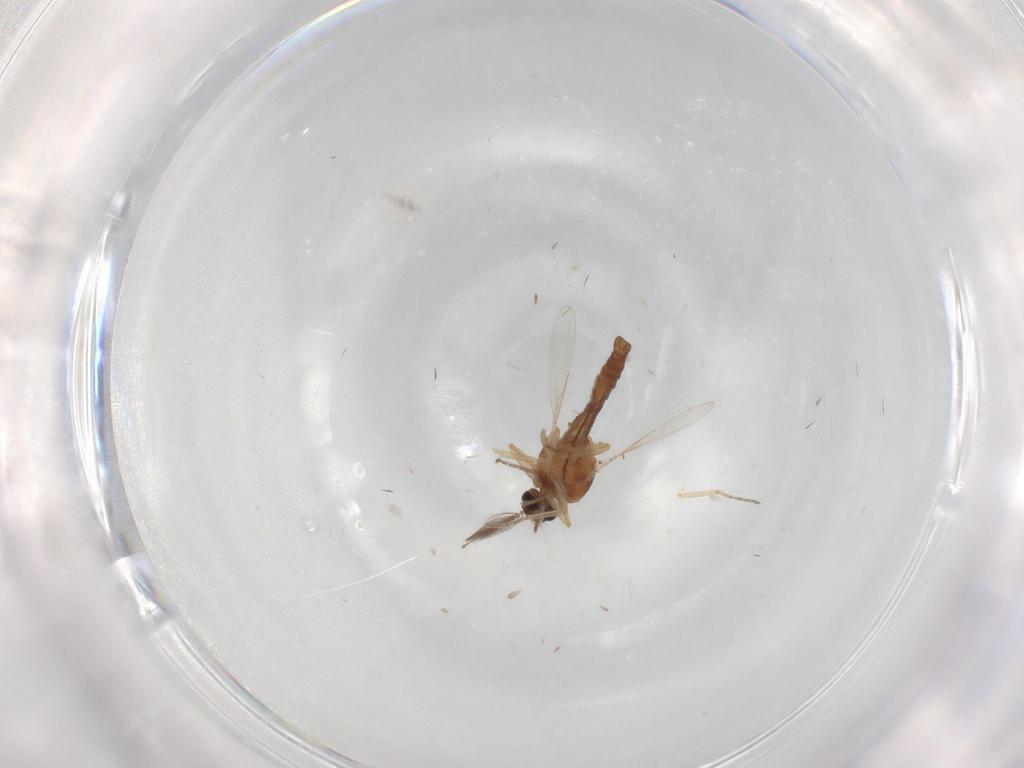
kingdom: Animalia
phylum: Arthropoda
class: Insecta
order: Diptera
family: Ceratopogonidae
